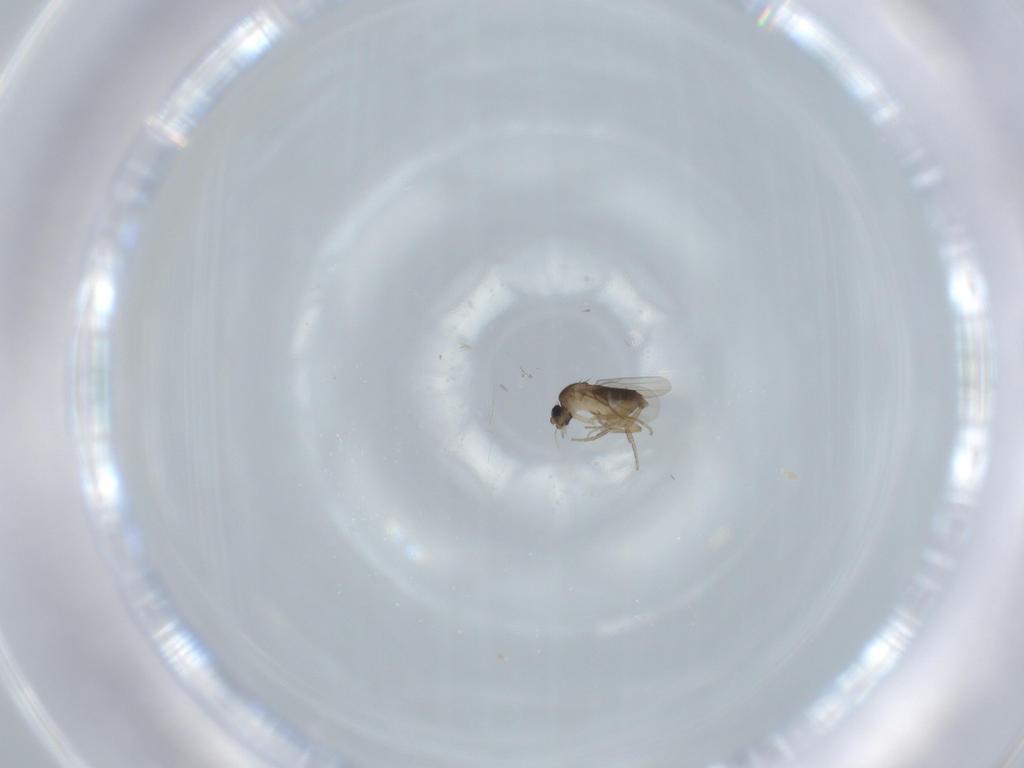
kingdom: Animalia
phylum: Arthropoda
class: Insecta
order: Diptera
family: Phoridae
